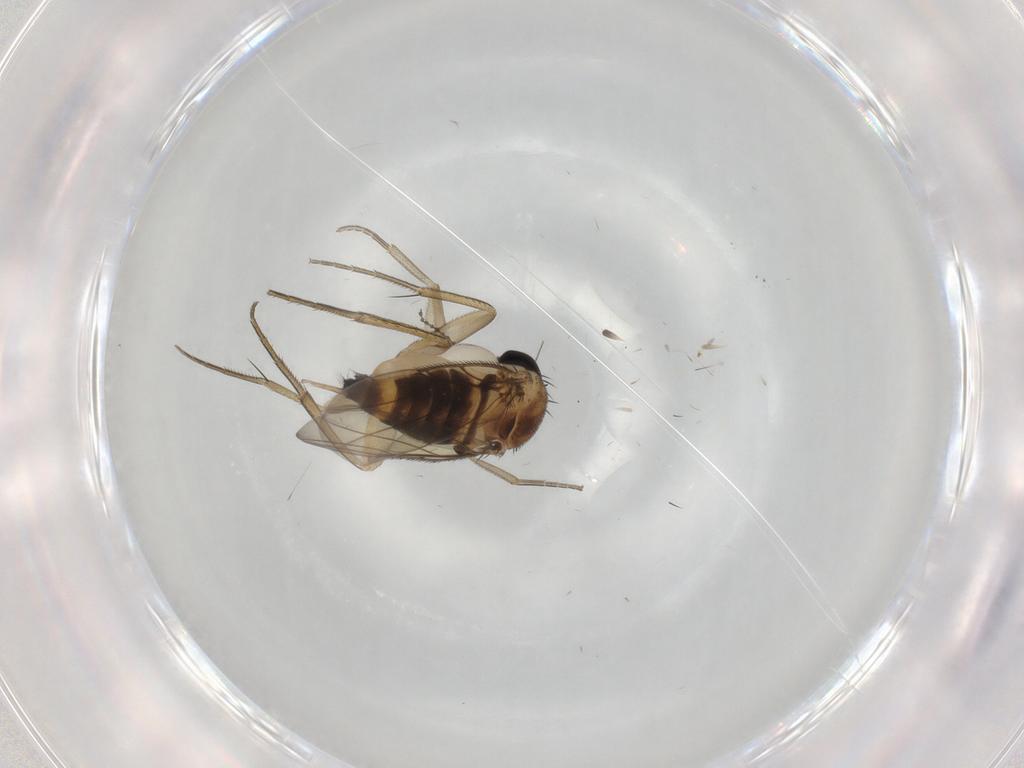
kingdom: Animalia
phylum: Arthropoda
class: Insecta
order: Diptera
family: Phoridae
